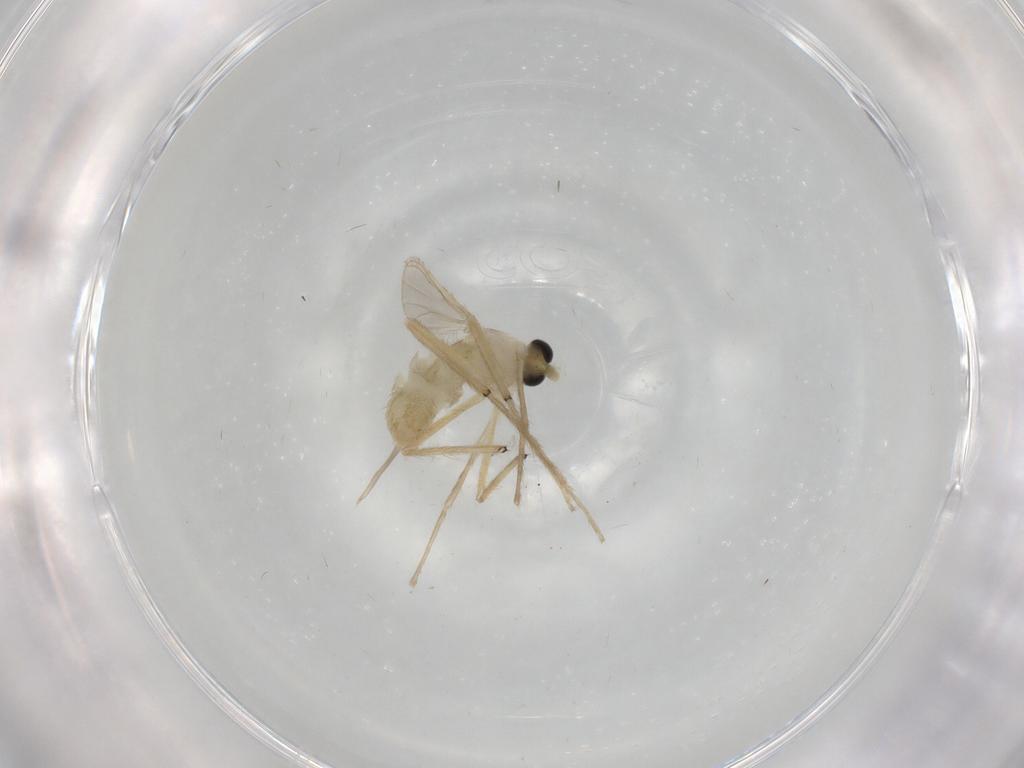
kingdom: Animalia
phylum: Arthropoda
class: Insecta
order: Diptera
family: Chironomidae
